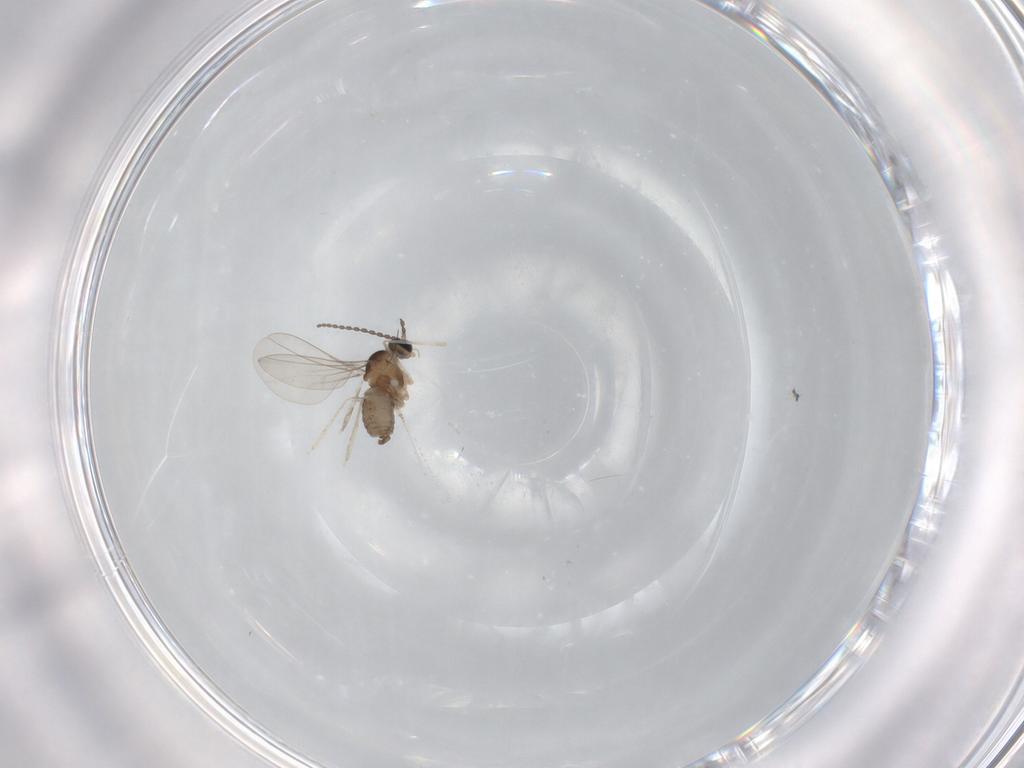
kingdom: Animalia
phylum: Arthropoda
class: Insecta
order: Diptera
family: Cecidomyiidae
